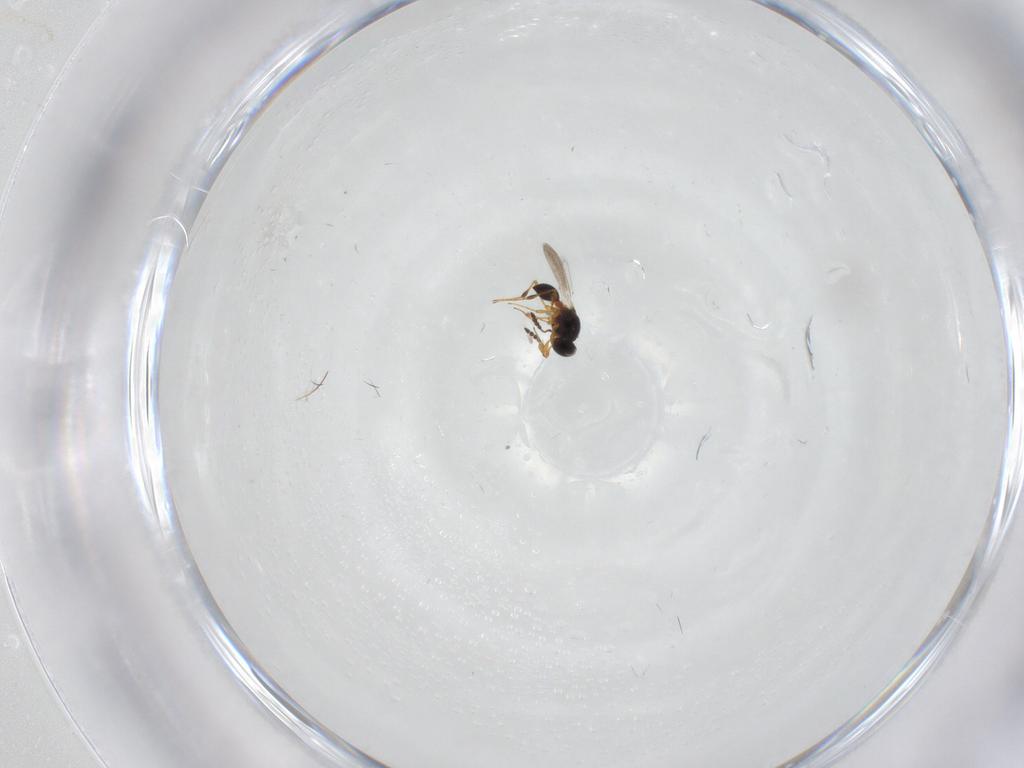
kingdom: Animalia
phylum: Arthropoda
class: Insecta
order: Hymenoptera
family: Platygastridae
